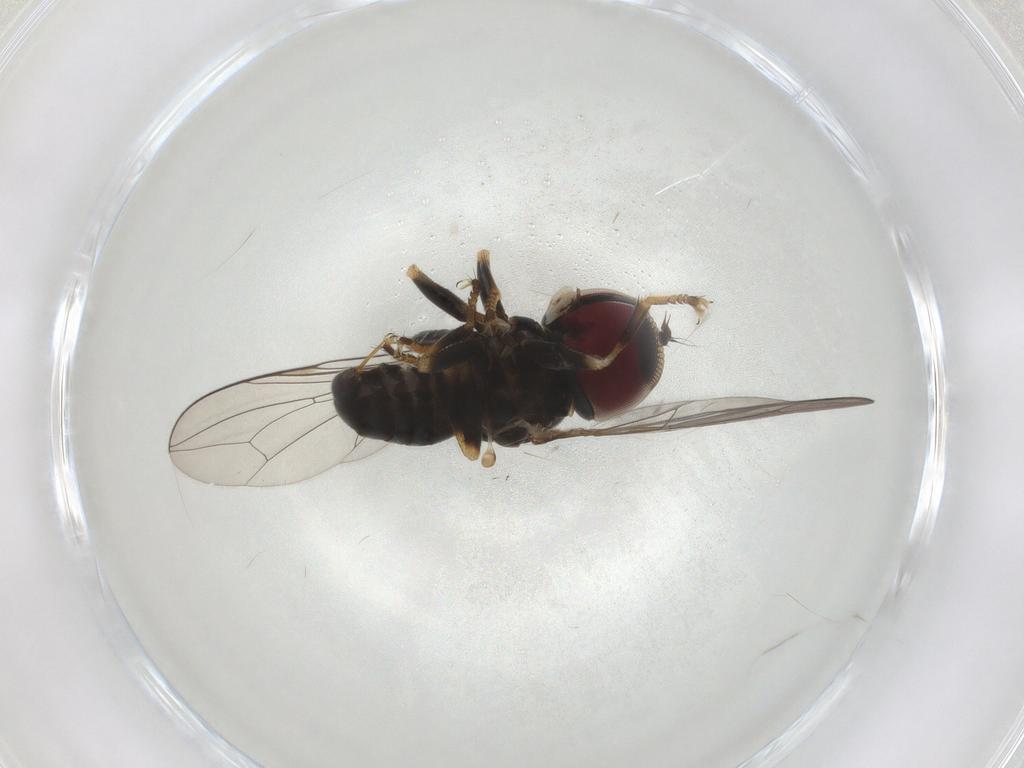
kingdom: Animalia
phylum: Arthropoda
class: Insecta
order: Diptera
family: Pipunculidae
